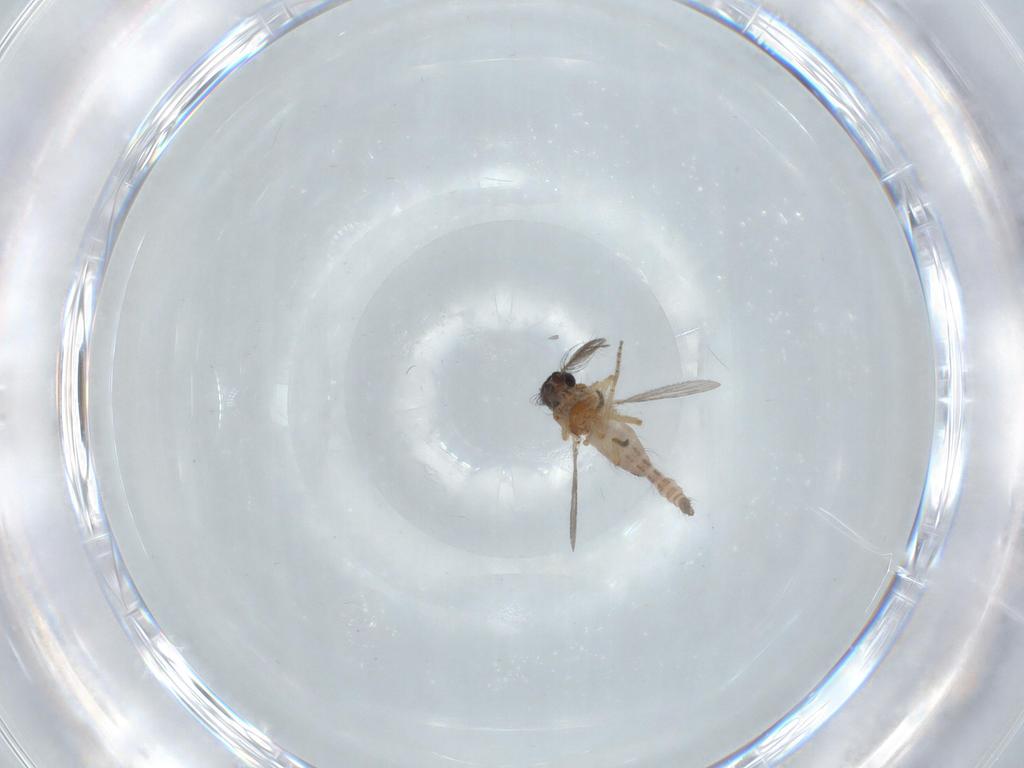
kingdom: Animalia
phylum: Arthropoda
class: Insecta
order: Diptera
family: Ceratopogonidae
